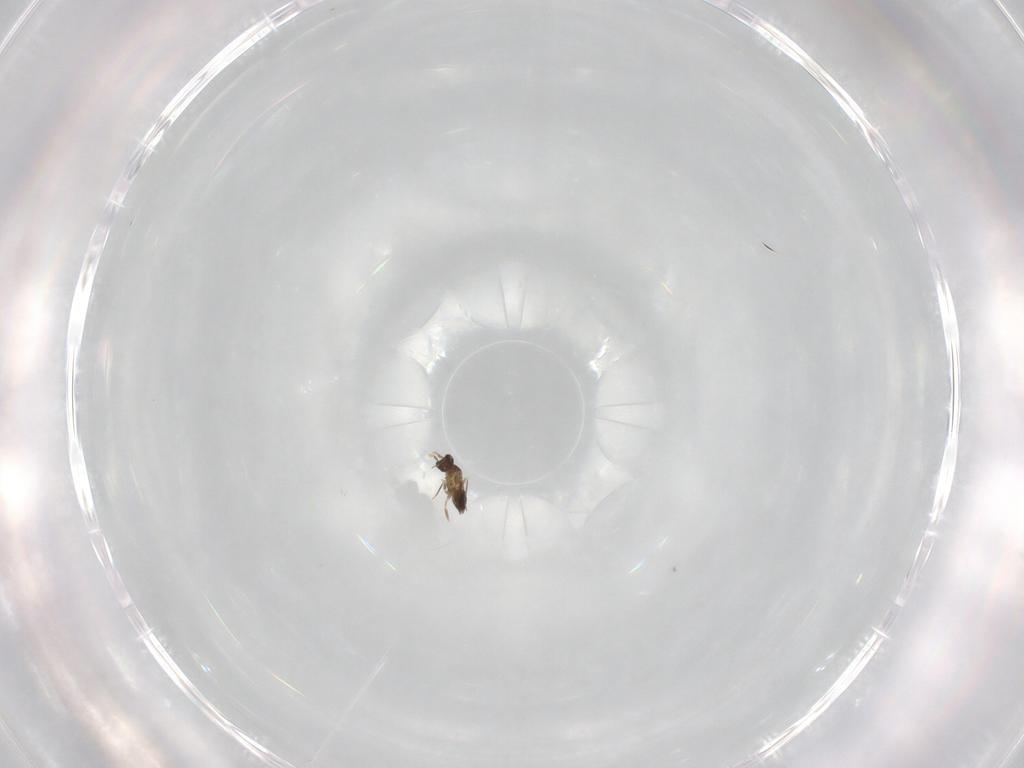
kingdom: Animalia
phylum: Arthropoda
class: Insecta
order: Hymenoptera
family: Mymaridae
